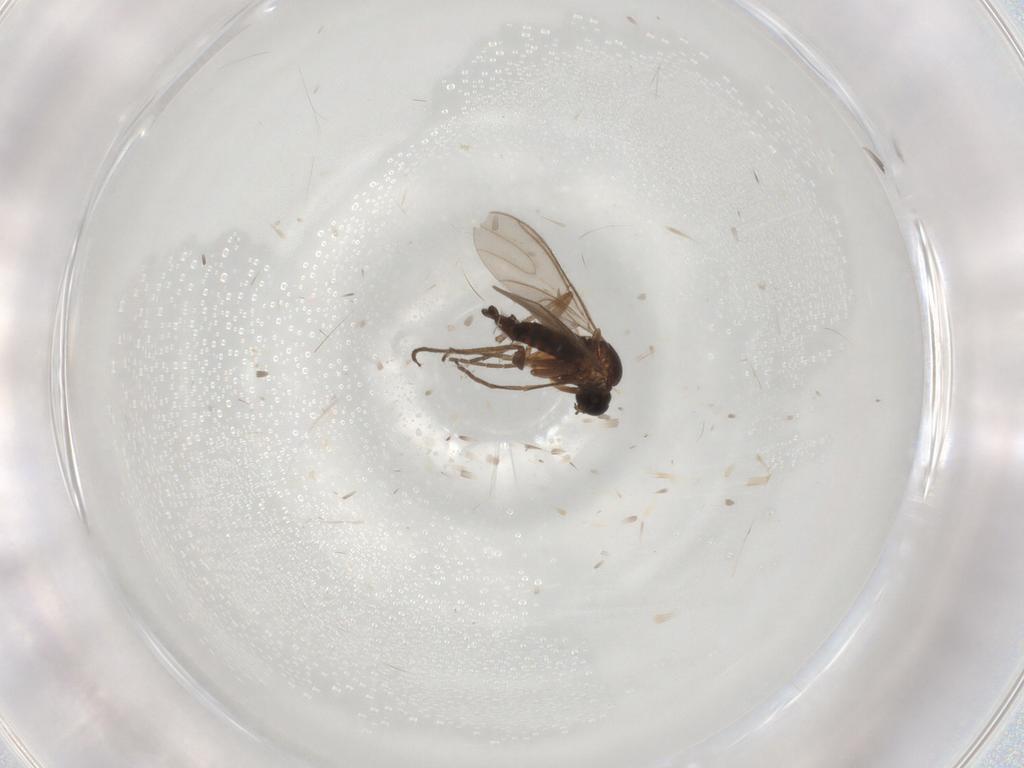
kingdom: Animalia
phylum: Arthropoda
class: Insecta
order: Diptera
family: Sciaridae
